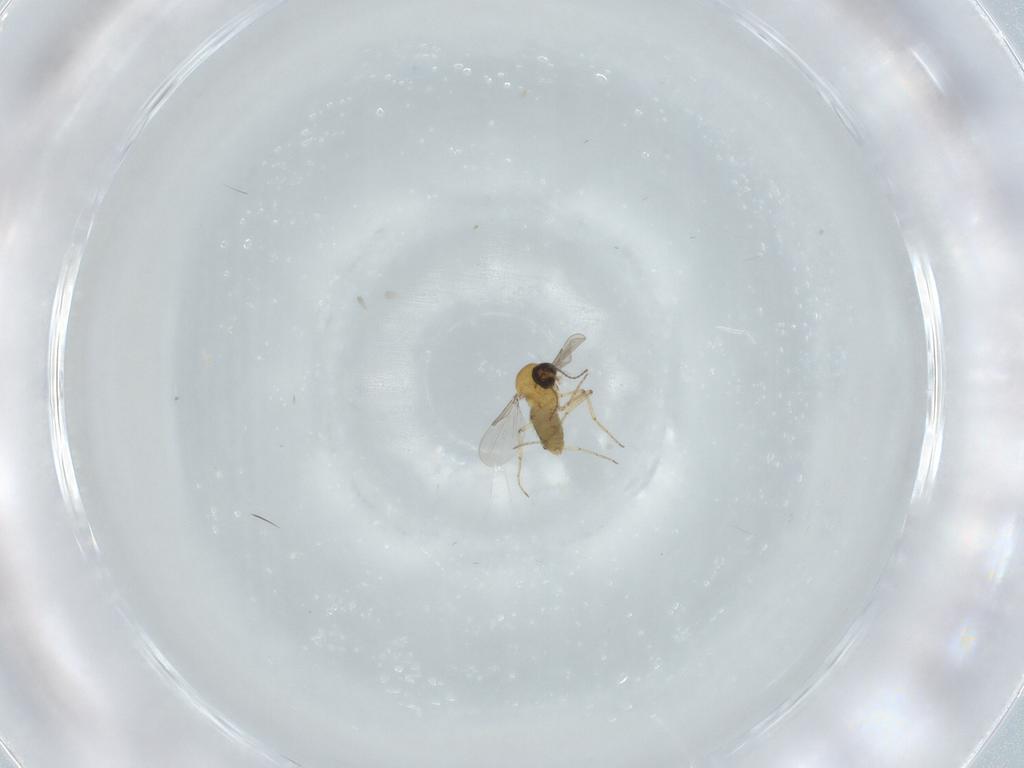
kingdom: Animalia
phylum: Arthropoda
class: Insecta
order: Diptera
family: Ceratopogonidae
